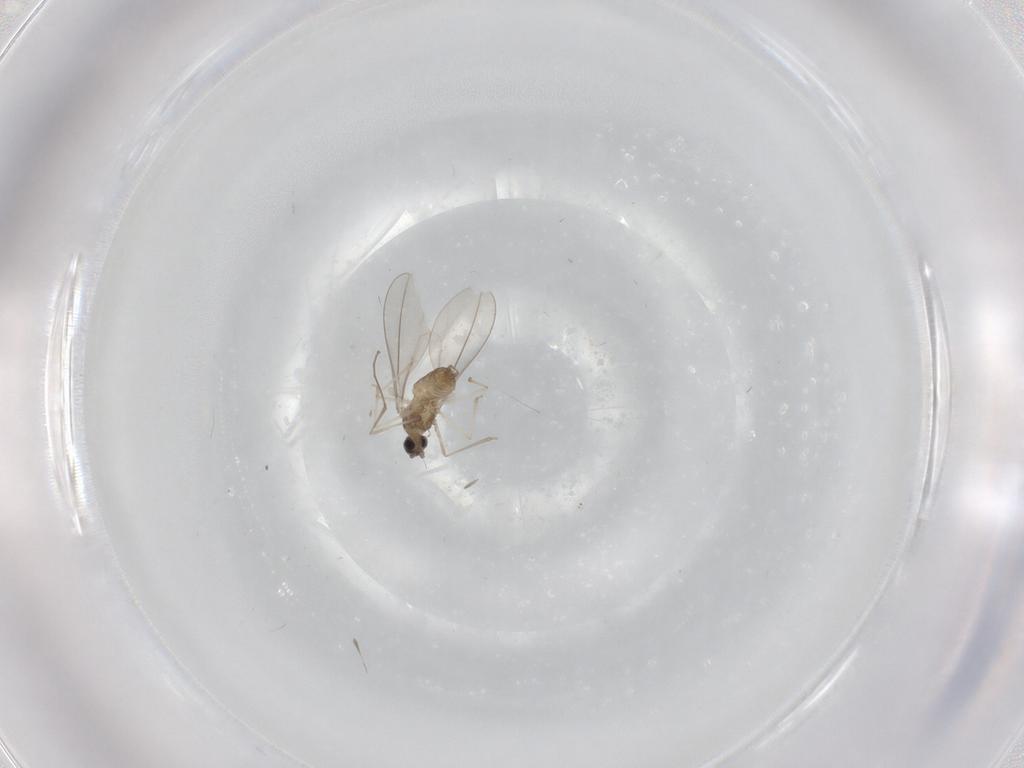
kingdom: Animalia
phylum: Arthropoda
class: Insecta
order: Diptera
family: Cecidomyiidae
